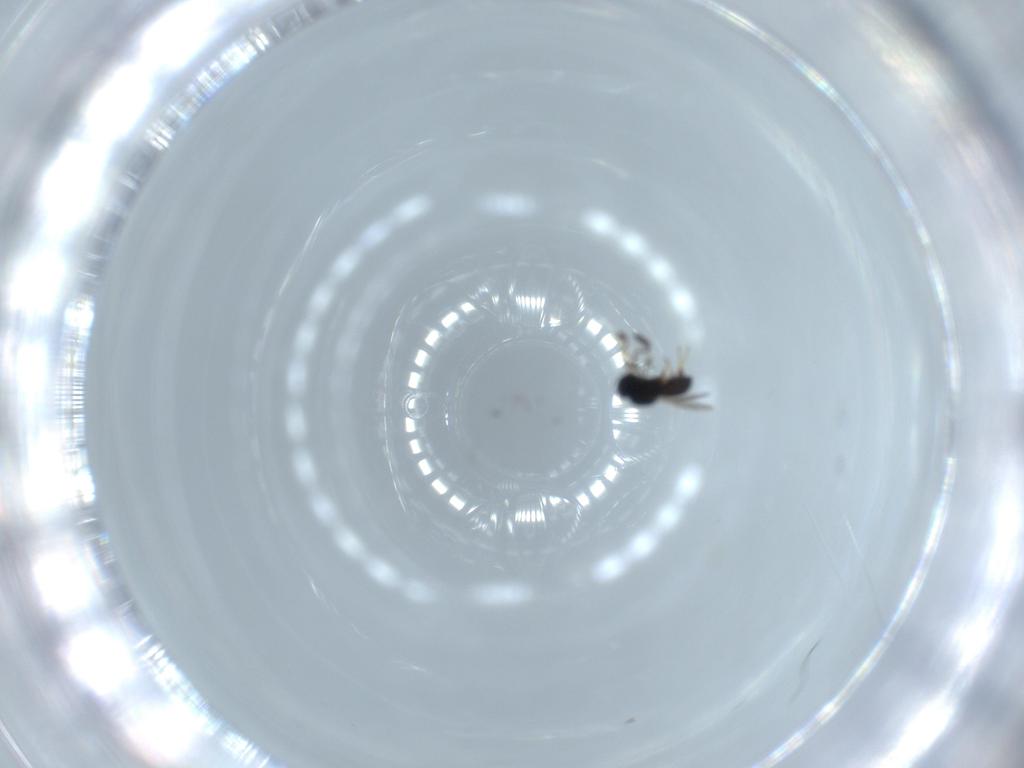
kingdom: Animalia
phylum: Arthropoda
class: Insecta
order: Hymenoptera
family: Scelionidae
